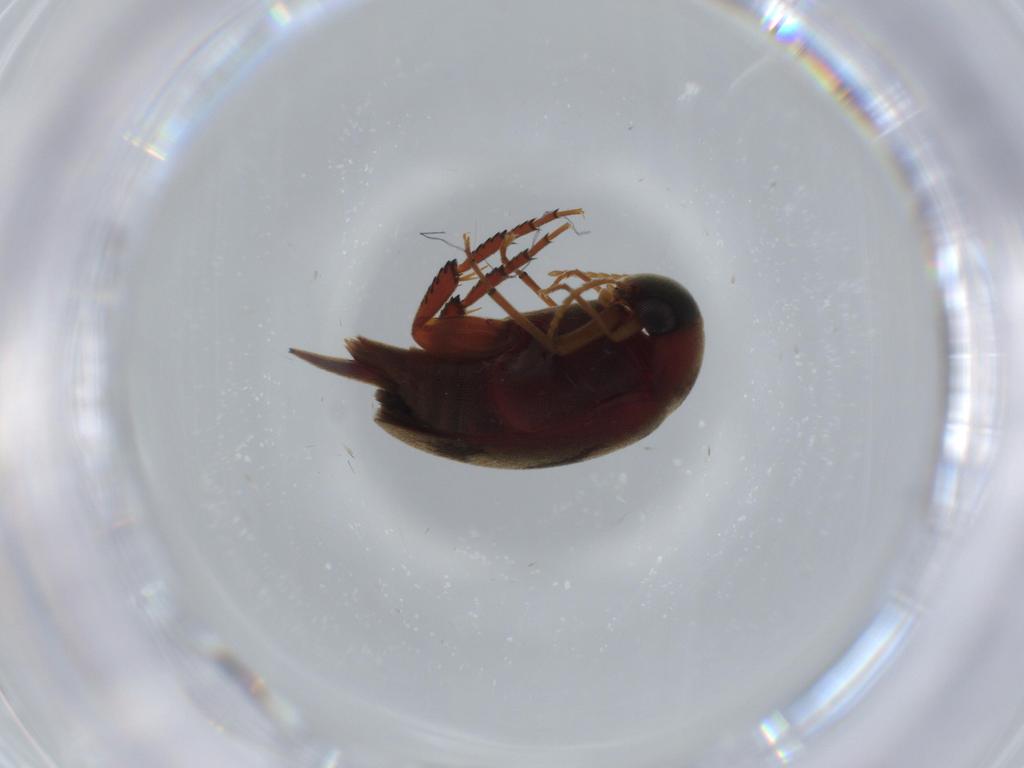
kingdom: Animalia
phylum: Arthropoda
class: Insecta
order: Coleoptera
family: Chrysomelidae
